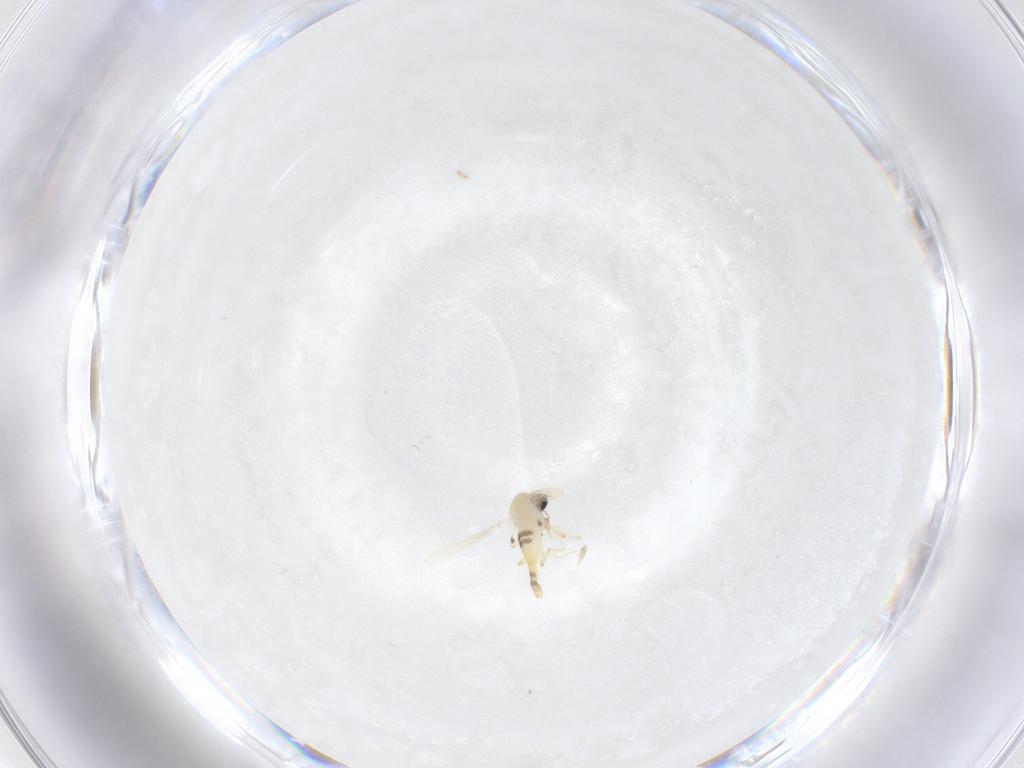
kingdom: Animalia
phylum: Arthropoda
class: Insecta
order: Diptera
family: Chironomidae
